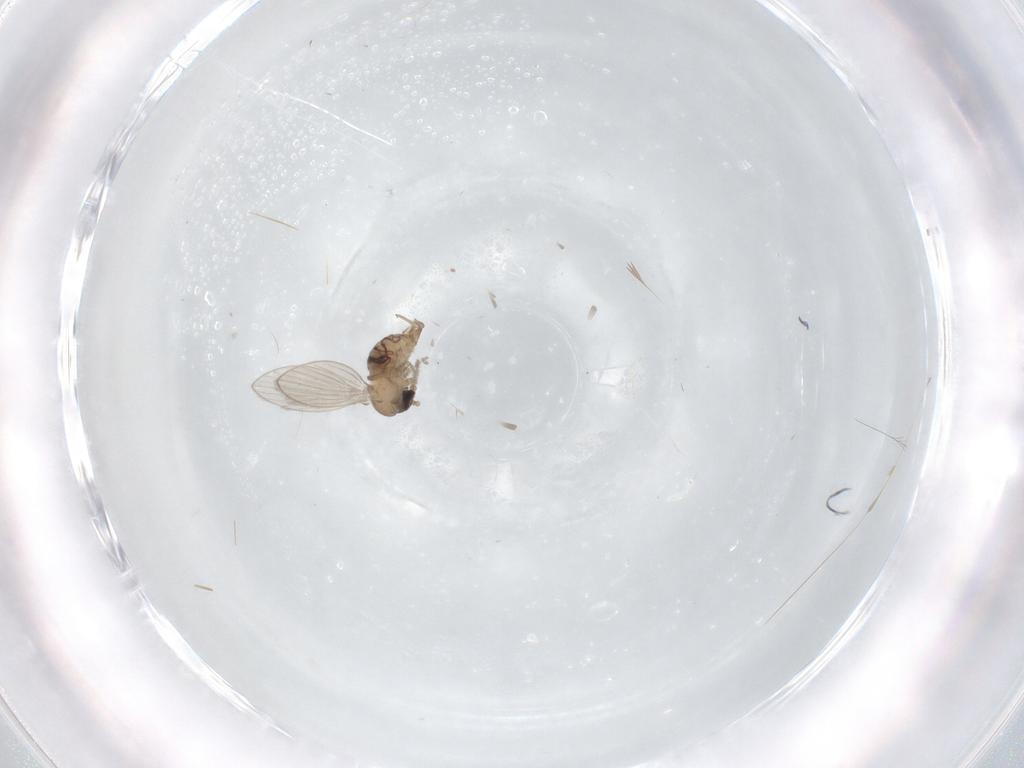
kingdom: Animalia
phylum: Arthropoda
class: Insecta
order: Diptera
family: Psychodidae
